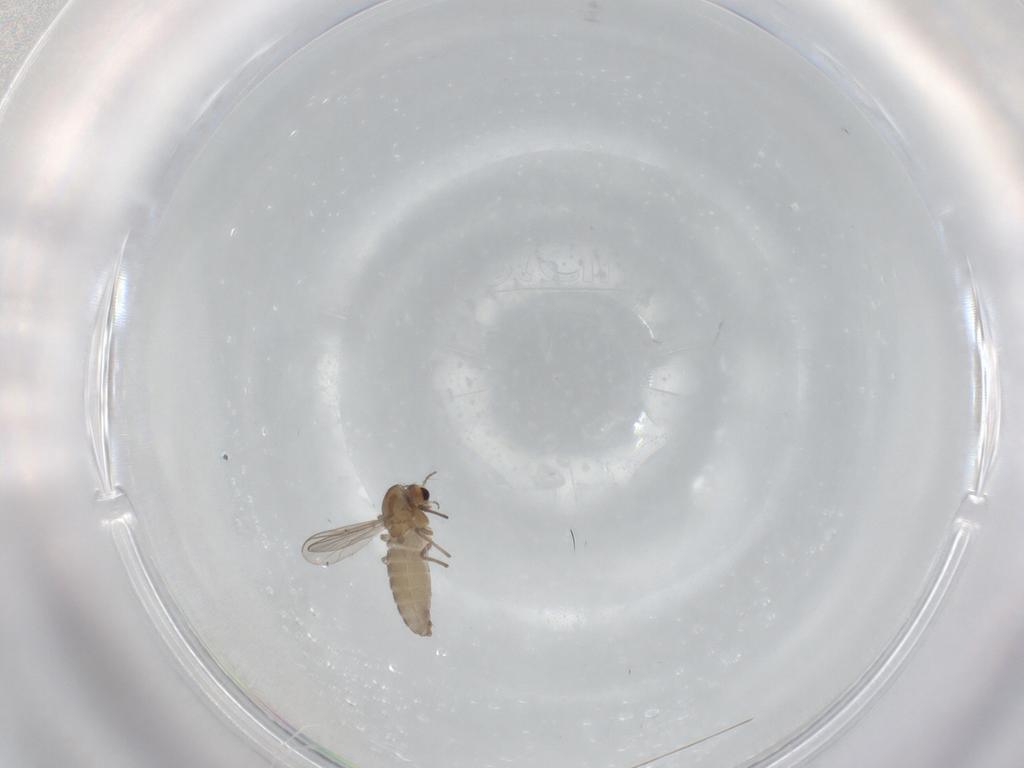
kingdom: Animalia
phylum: Arthropoda
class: Insecta
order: Diptera
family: Chironomidae
